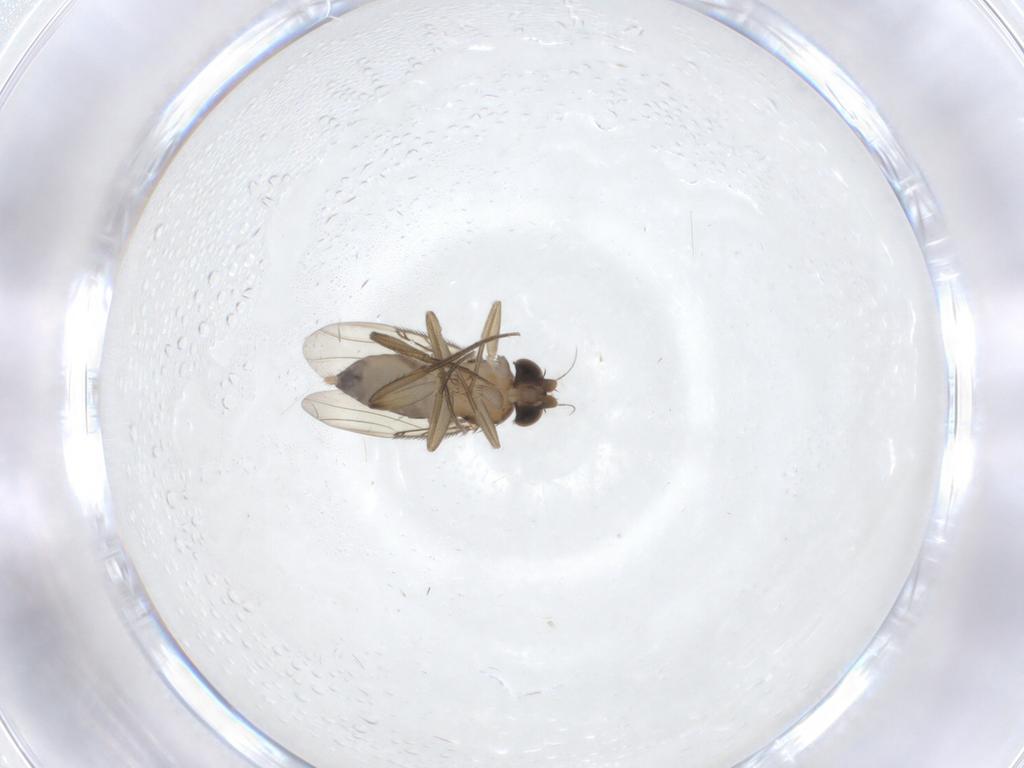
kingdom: Animalia
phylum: Arthropoda
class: Insecta
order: Diptera
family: Phoridae
